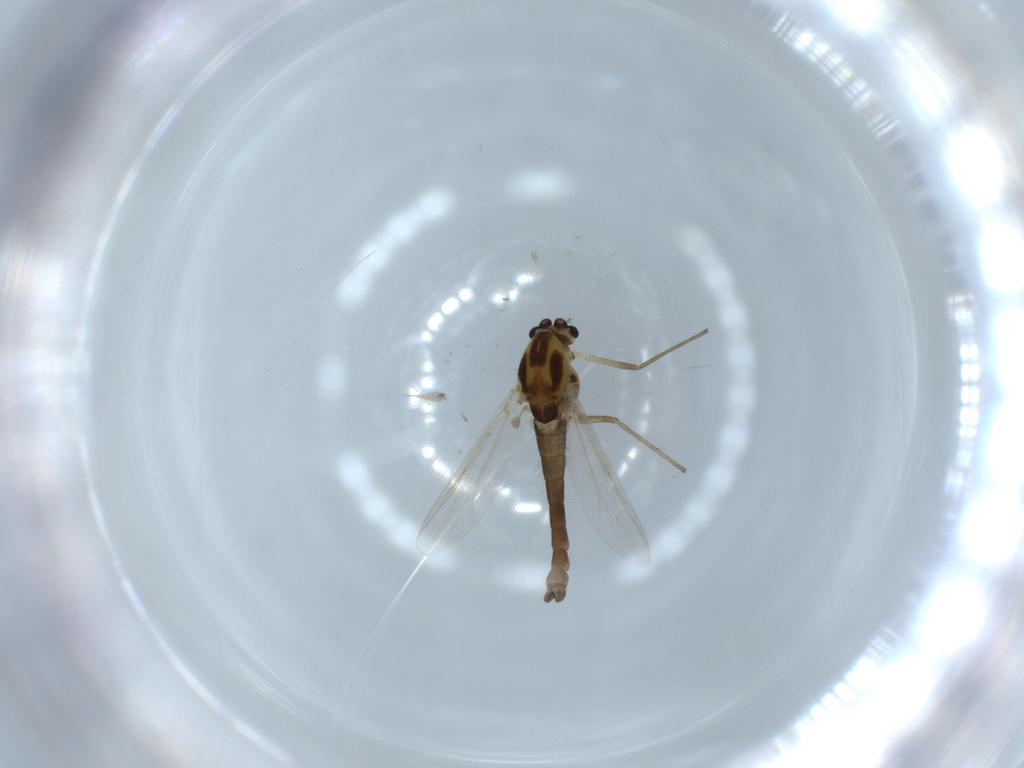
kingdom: Animalia
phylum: Arthropoda
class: Insecta
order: Diptera
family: Chironomidae
